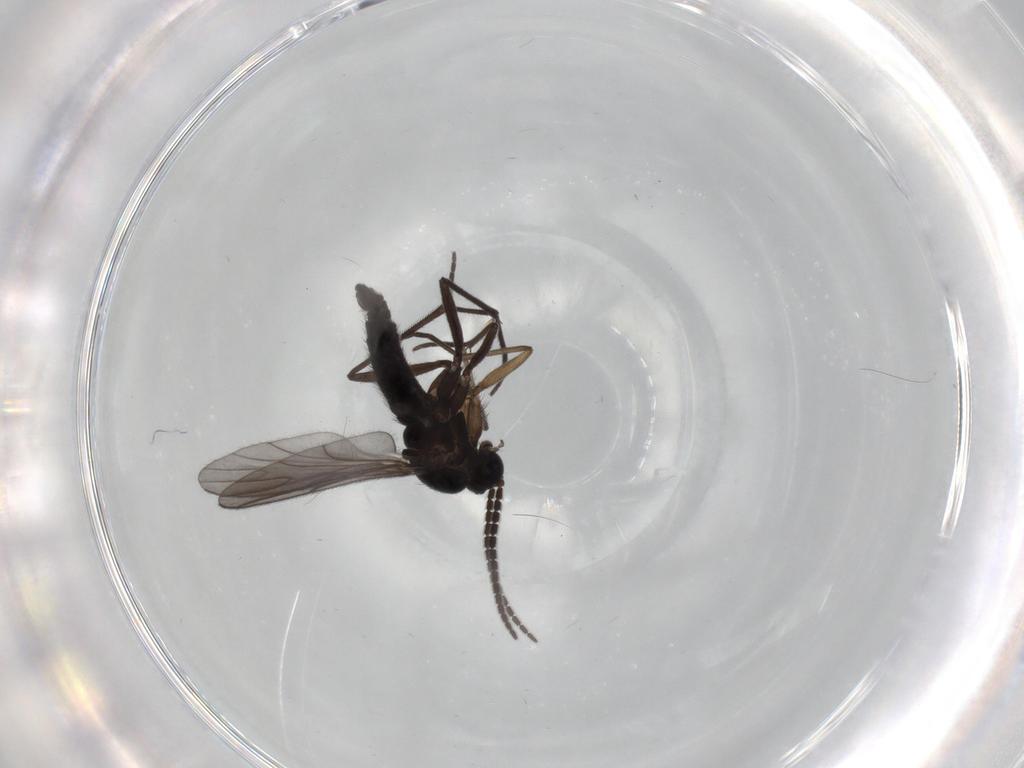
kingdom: Animalia
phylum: Arthropoda
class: Insecta
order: Diptera
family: Sciaridae
